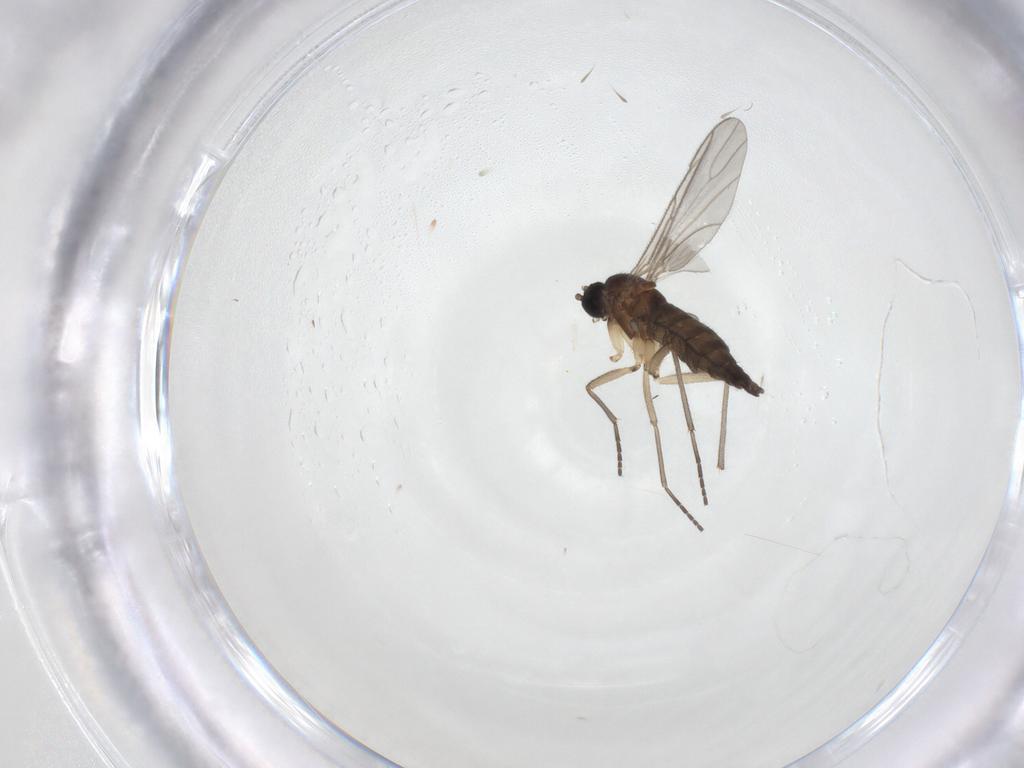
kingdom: Animalia
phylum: Arthropoda
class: Insecta
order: Diptera
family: Sciaridae
